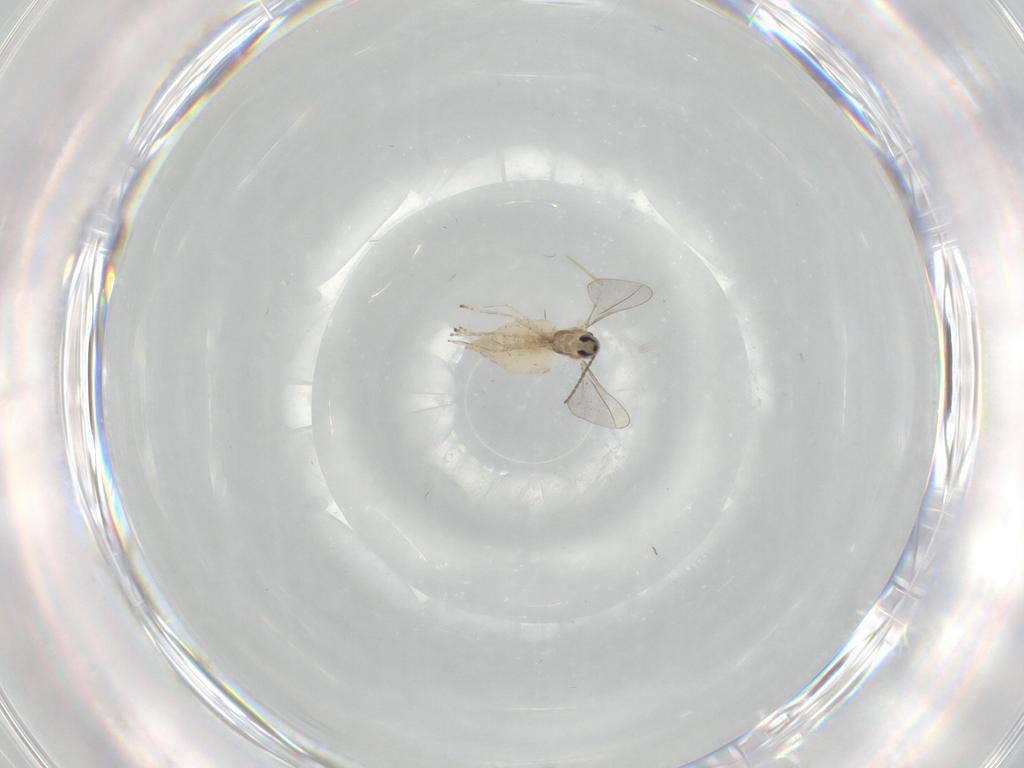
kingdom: Animalia
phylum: Arthropoda
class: Insecta
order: Diptera
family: Cecidomyiidae
